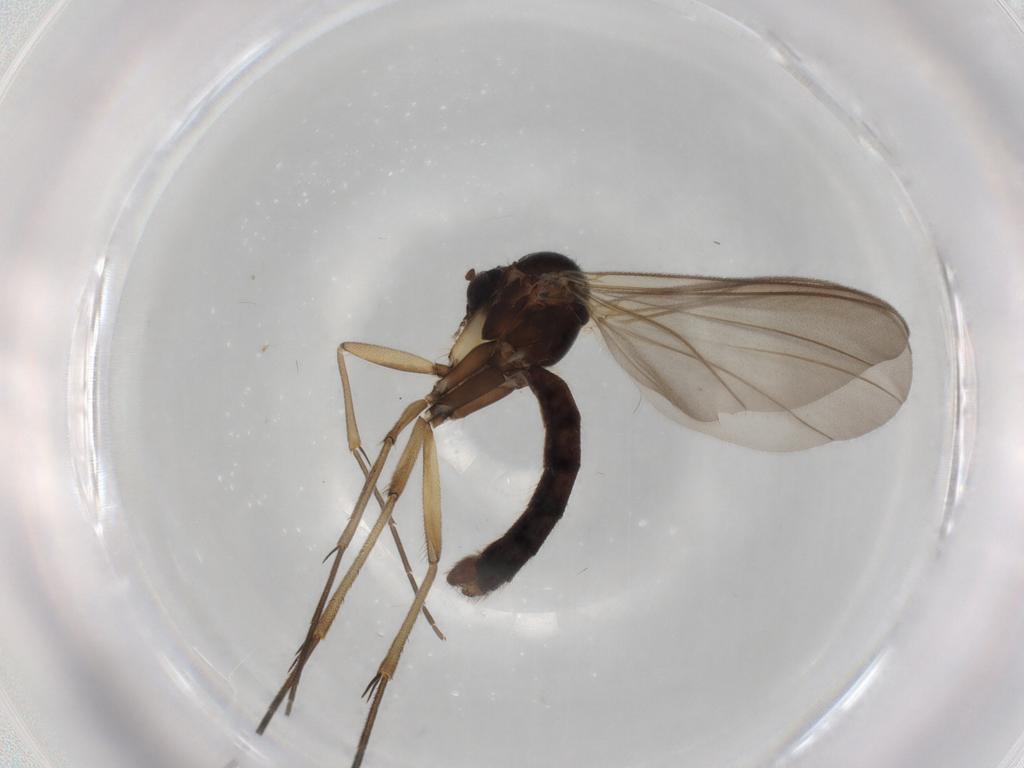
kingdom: Animalia
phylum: Arthropoda
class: Insecta
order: Diptera
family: Mycetophilidae
